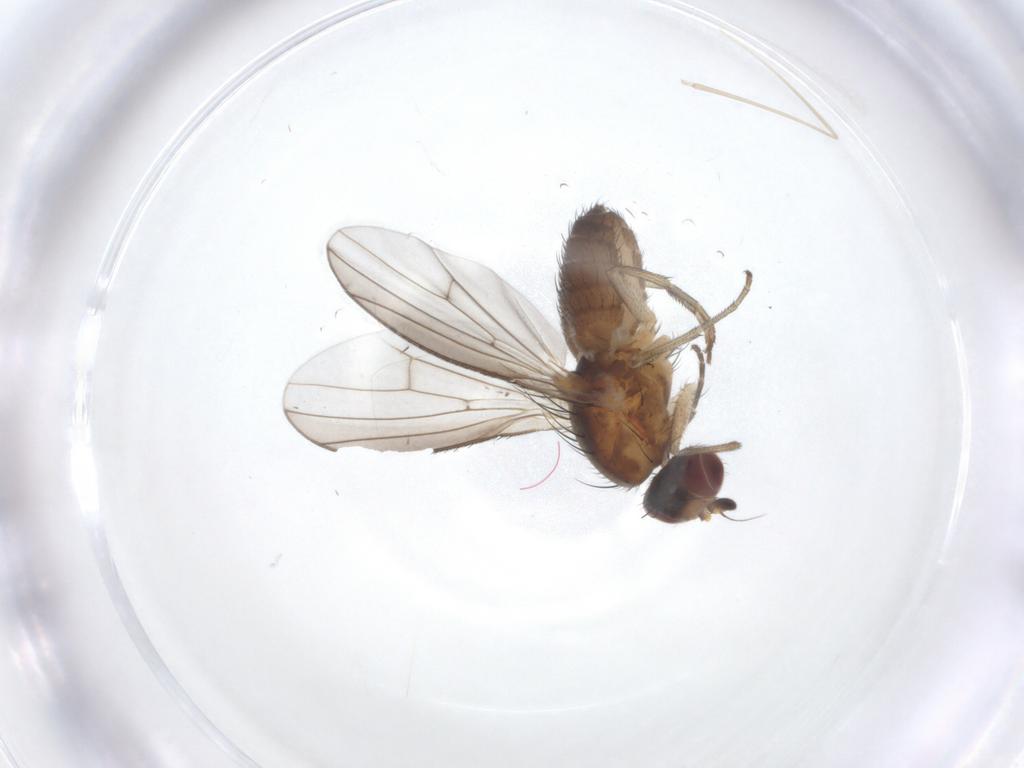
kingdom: Animalia
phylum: Arthropoda
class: Insecta
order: Diptera
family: Heleomyzidae
